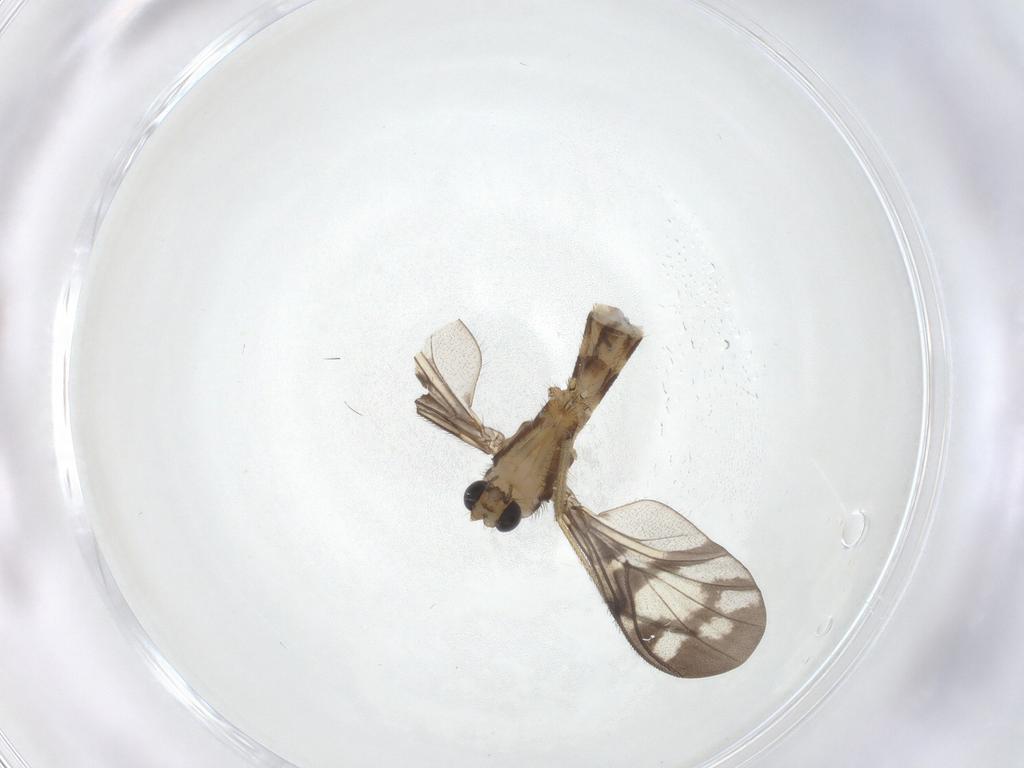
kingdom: Animalia
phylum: Arthropoda
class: Insecta
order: Diptera
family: Keroplatidae
